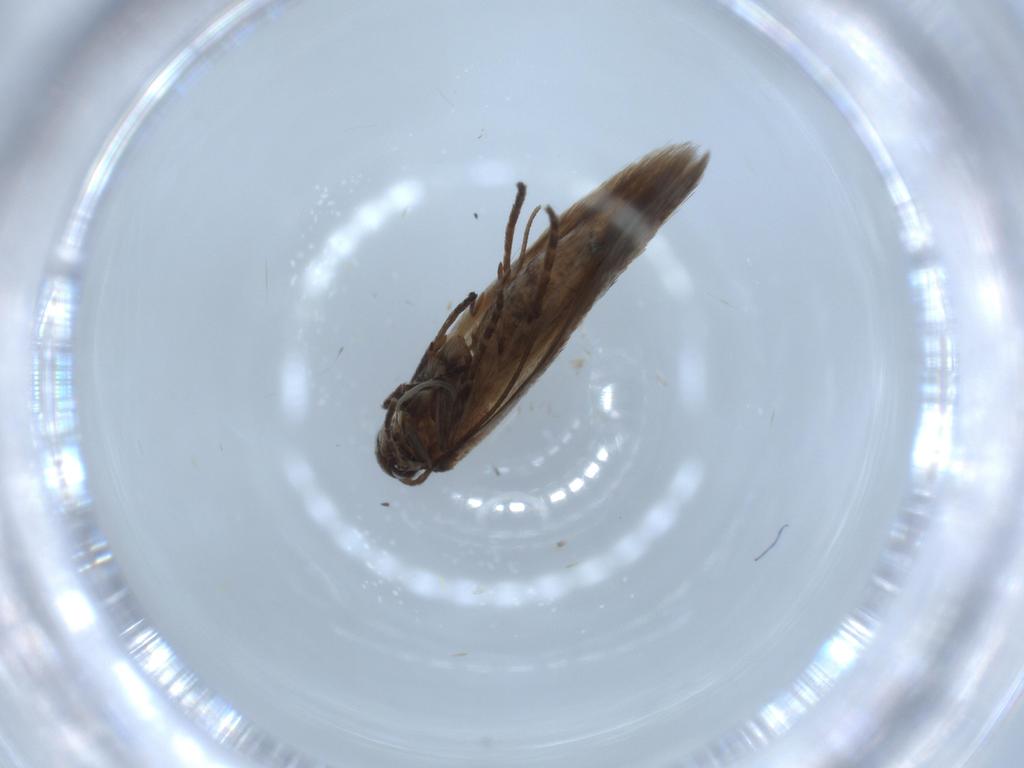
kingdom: Animalia
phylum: Arthropoda
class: Insecta
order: Lepidoptera
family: Scythrididae
